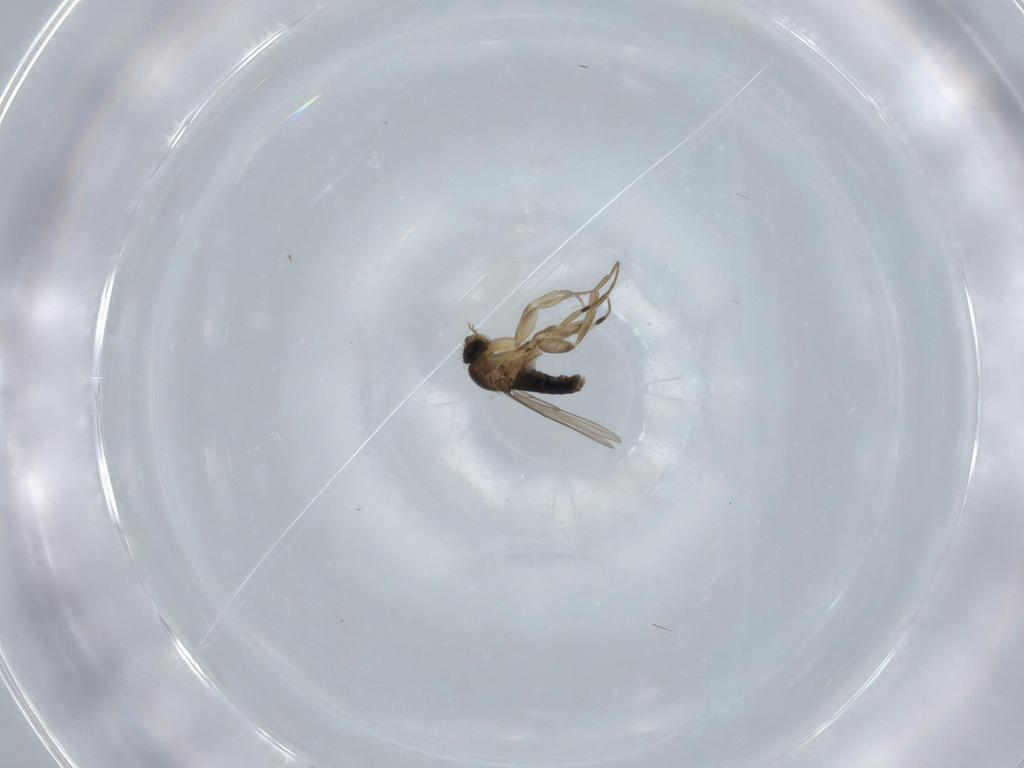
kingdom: Animalia
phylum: Arthropoda
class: Insecta
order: Diptera
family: Phoridae
